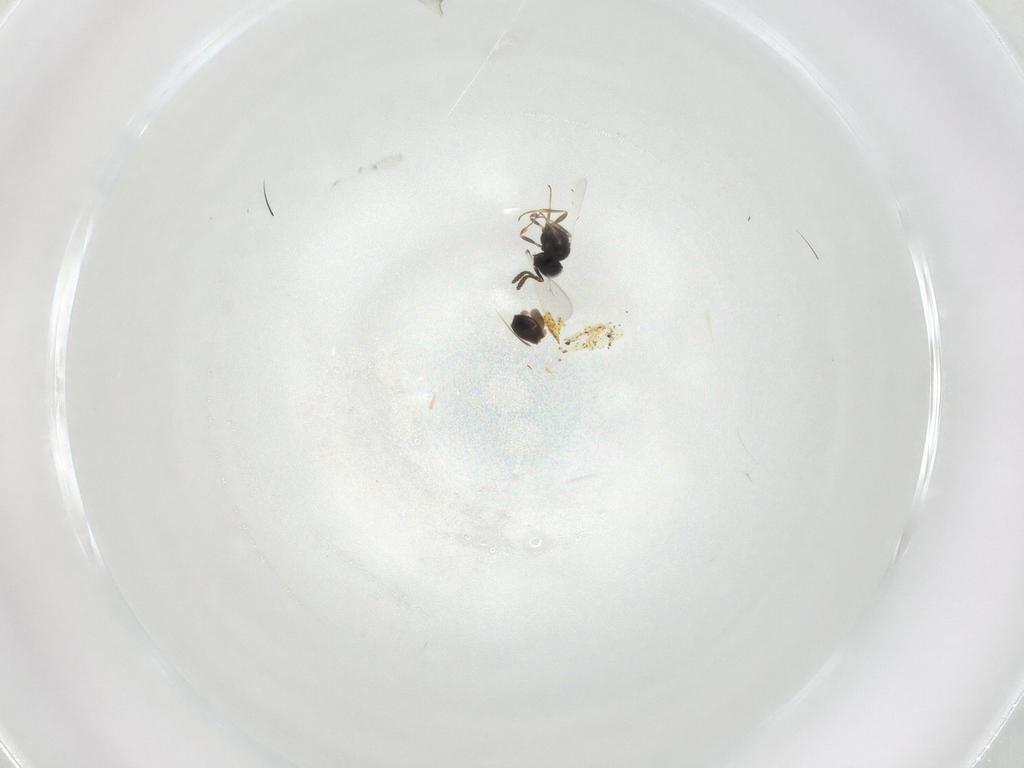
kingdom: Animalia
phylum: Arthropoda
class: Insecta
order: Hymenoptera
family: Scelionidae
